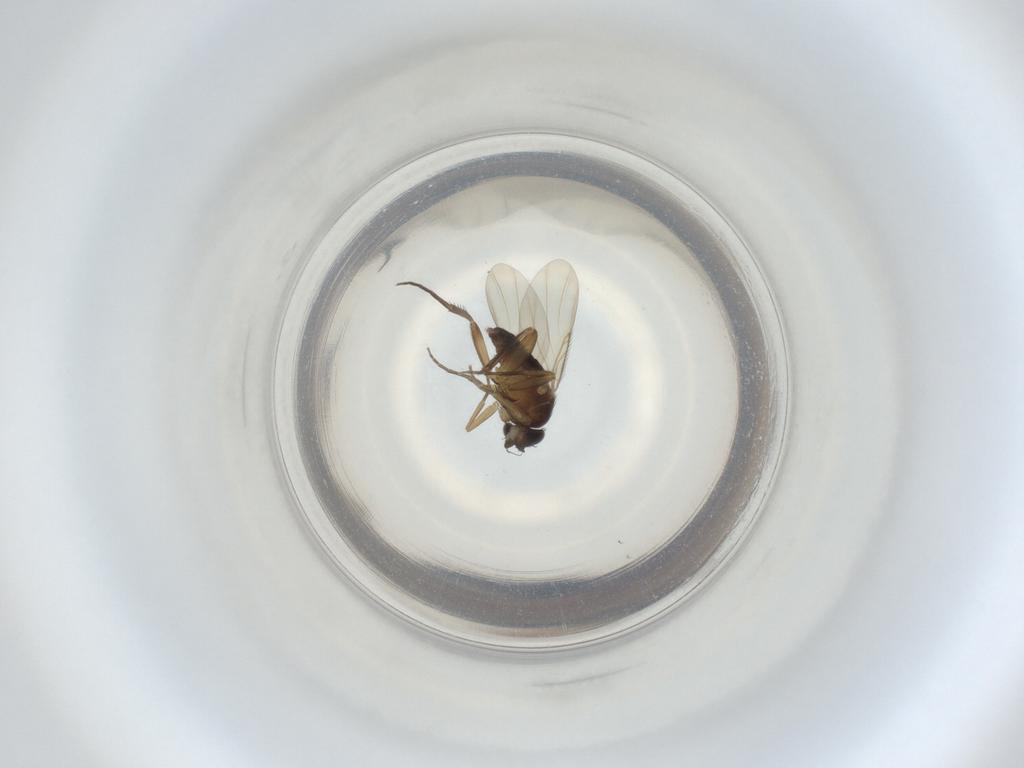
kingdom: Animalia
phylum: Arthropoda
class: Insecta
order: Diptera
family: Phoridae
